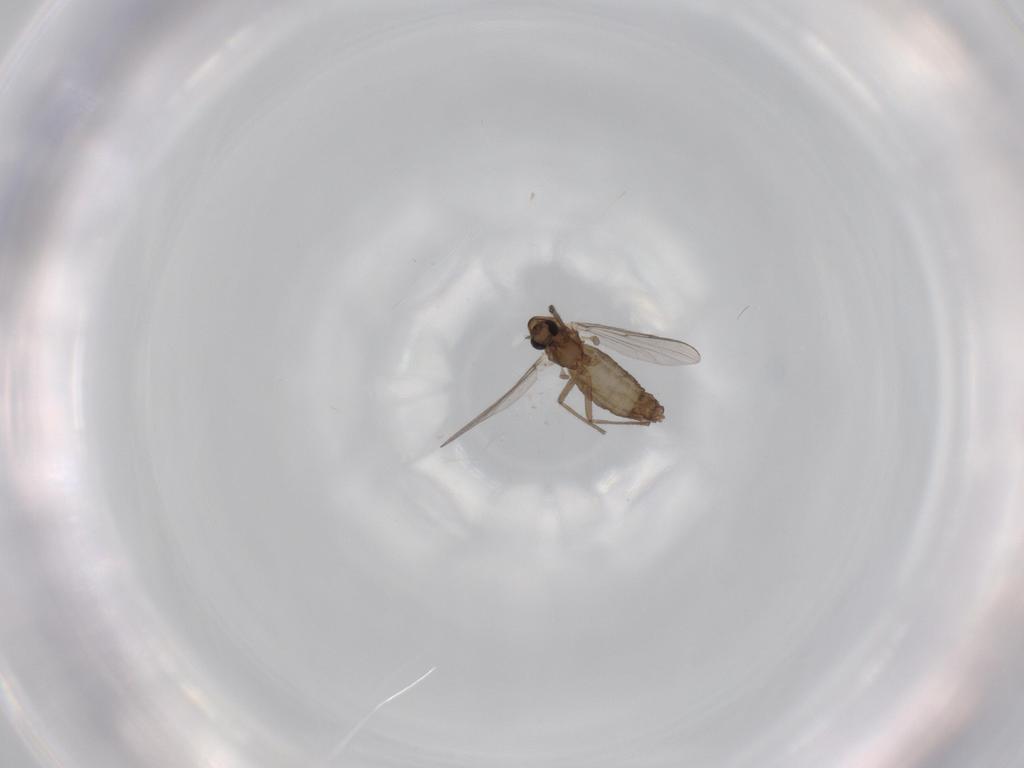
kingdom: Animalia
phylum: Arthropoda
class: Insecta
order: Diptera
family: Chironomidae
